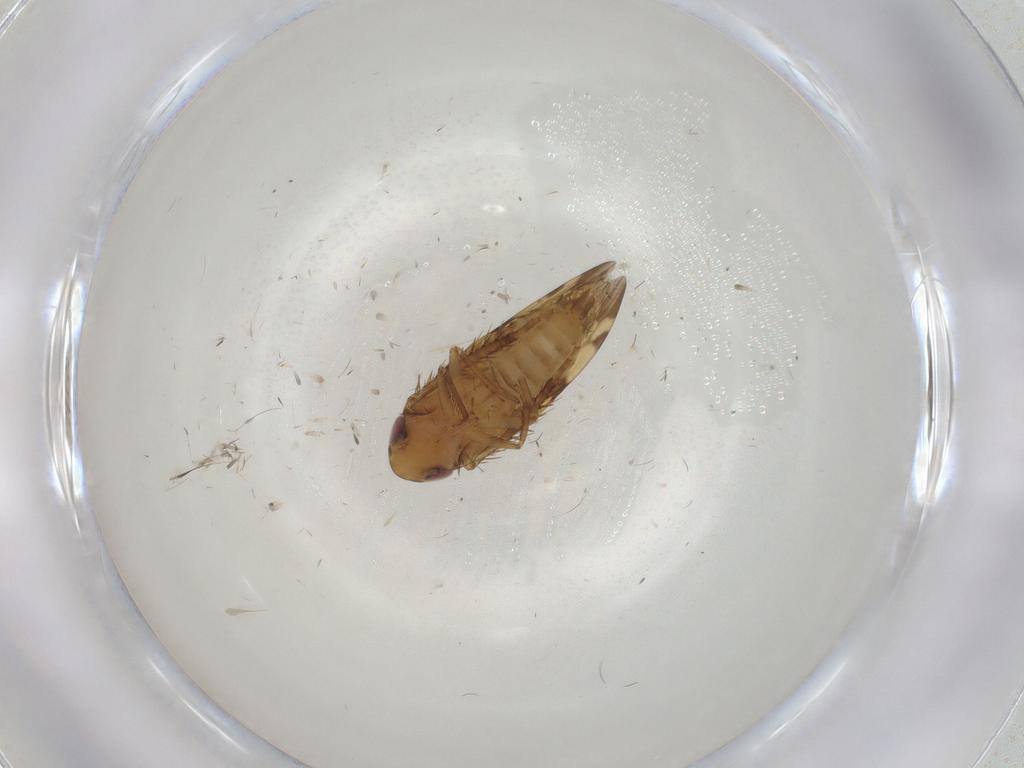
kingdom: Animalia
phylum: Arthropoda
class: Insecta
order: Hemiptera
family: Cicadellidae
